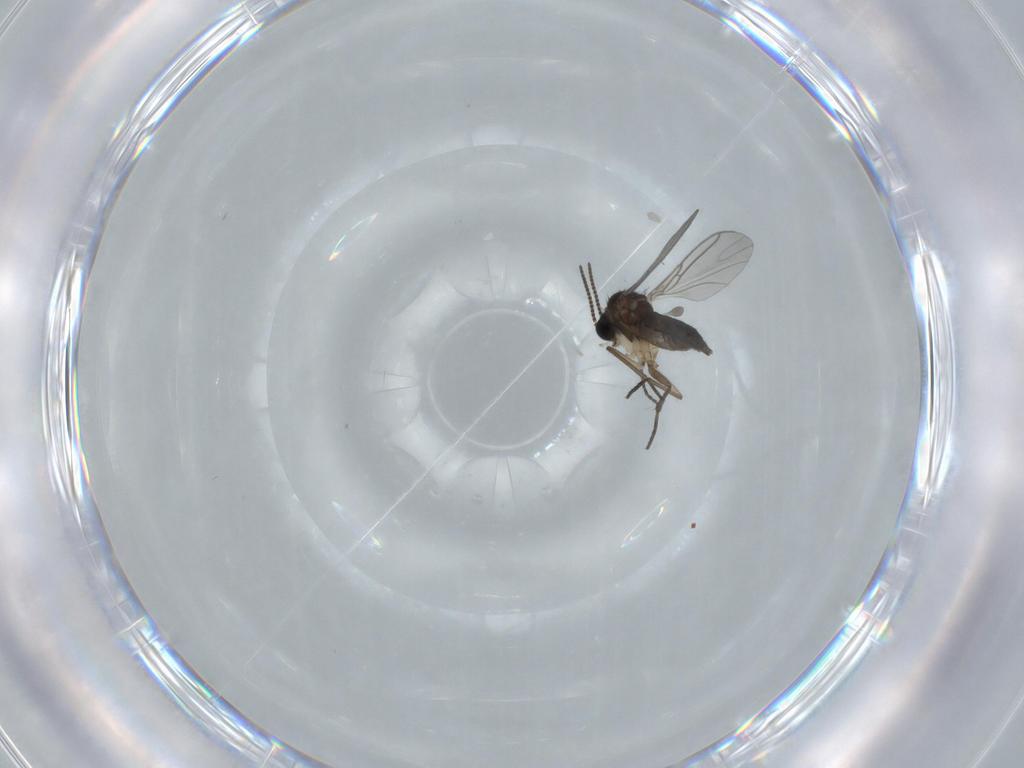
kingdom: Animalia
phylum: Arthropoda
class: Insecta
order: Diptera
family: Sciaridae
